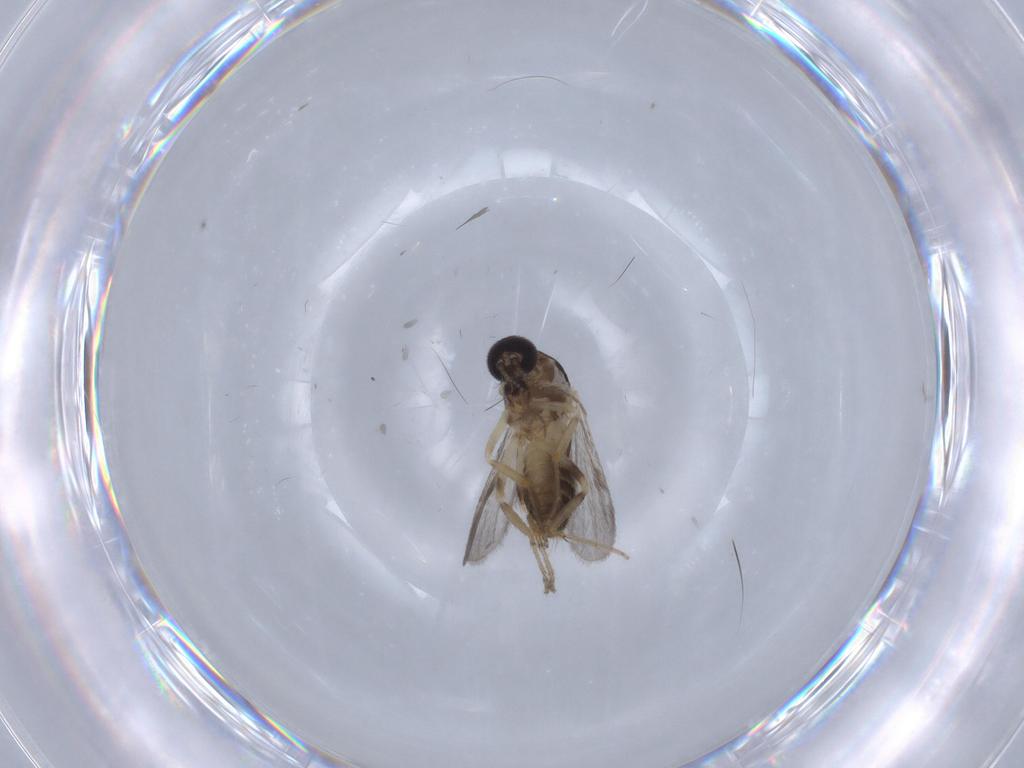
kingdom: Animalia
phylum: Arthropoda
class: Insecta
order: Diptera
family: Ceratopogonidae
